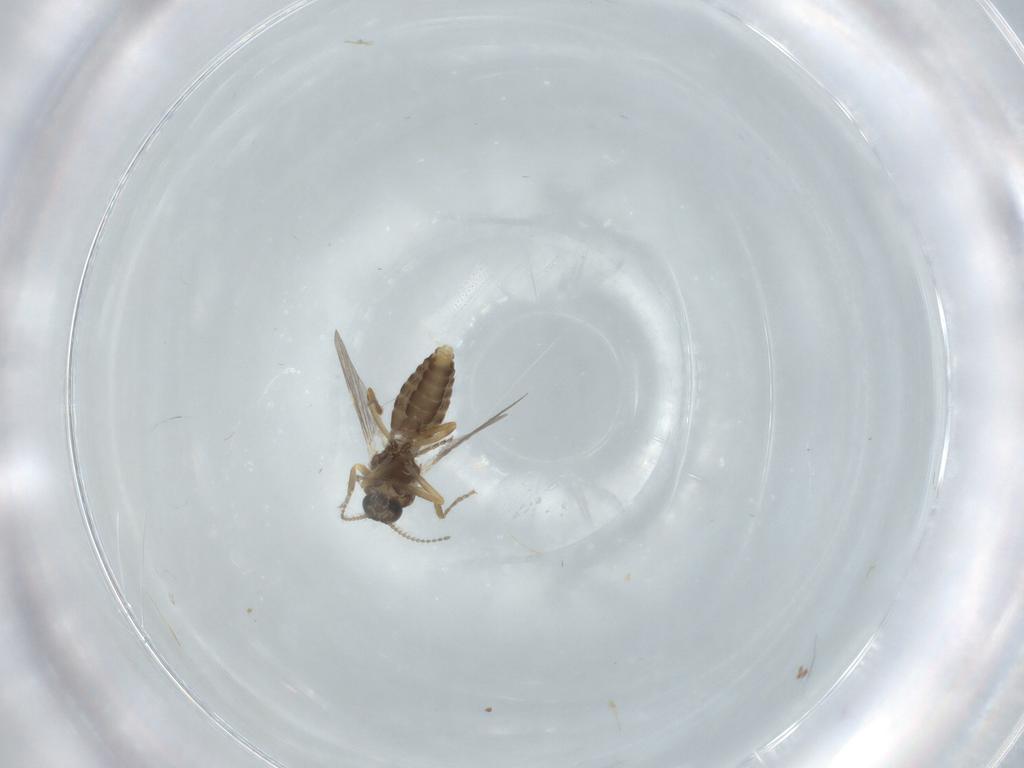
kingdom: Animalia
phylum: Arthropoda
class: Insecta
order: Diptera
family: Ceratopogonidae
